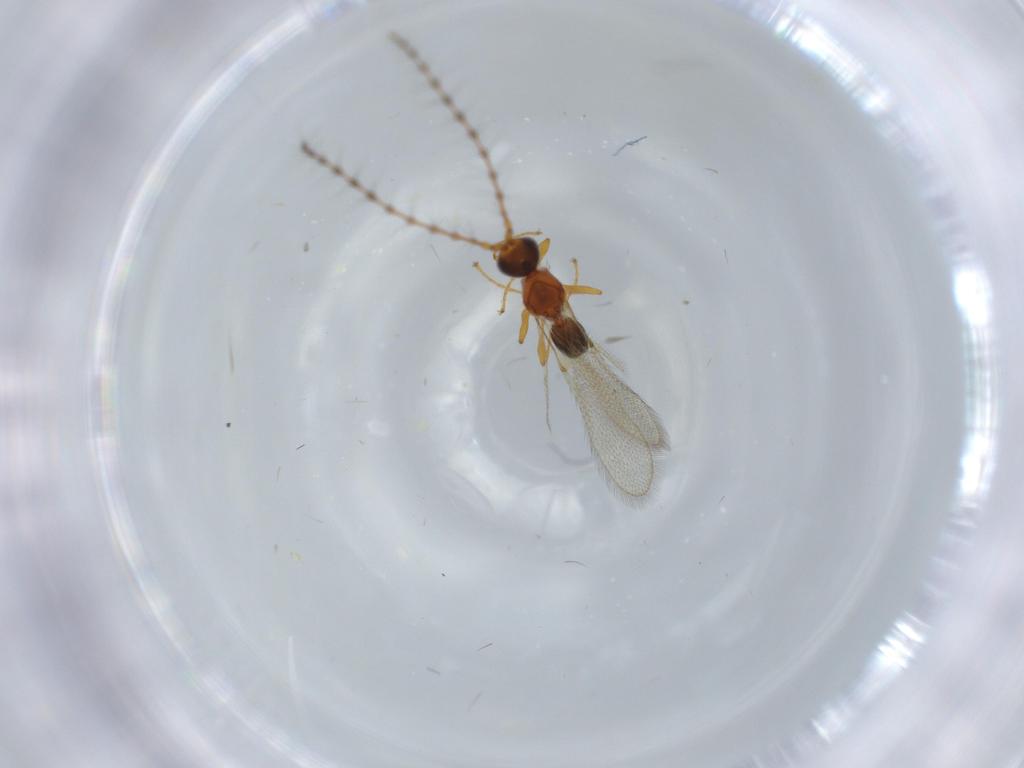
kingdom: Animalia
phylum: Arthropoda
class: Insecta
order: Hymenoptera
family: Diapriidae
